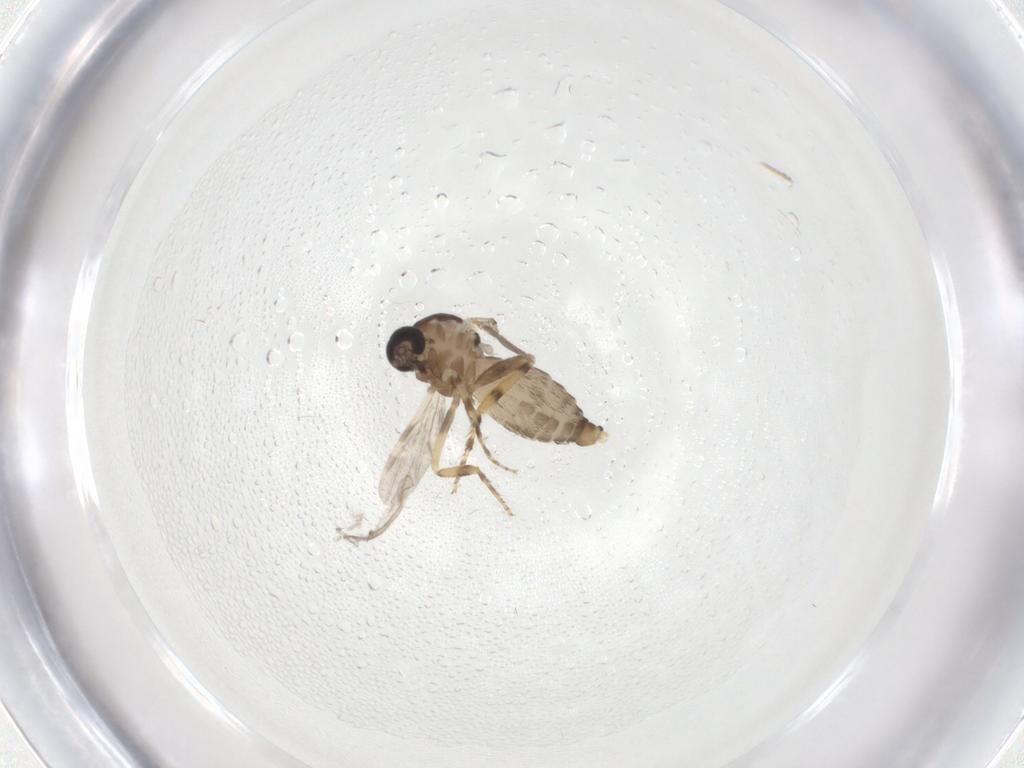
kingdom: Animalia
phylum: Arthropoda
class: Insecta
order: Diptera
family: Ceratopogonidae
